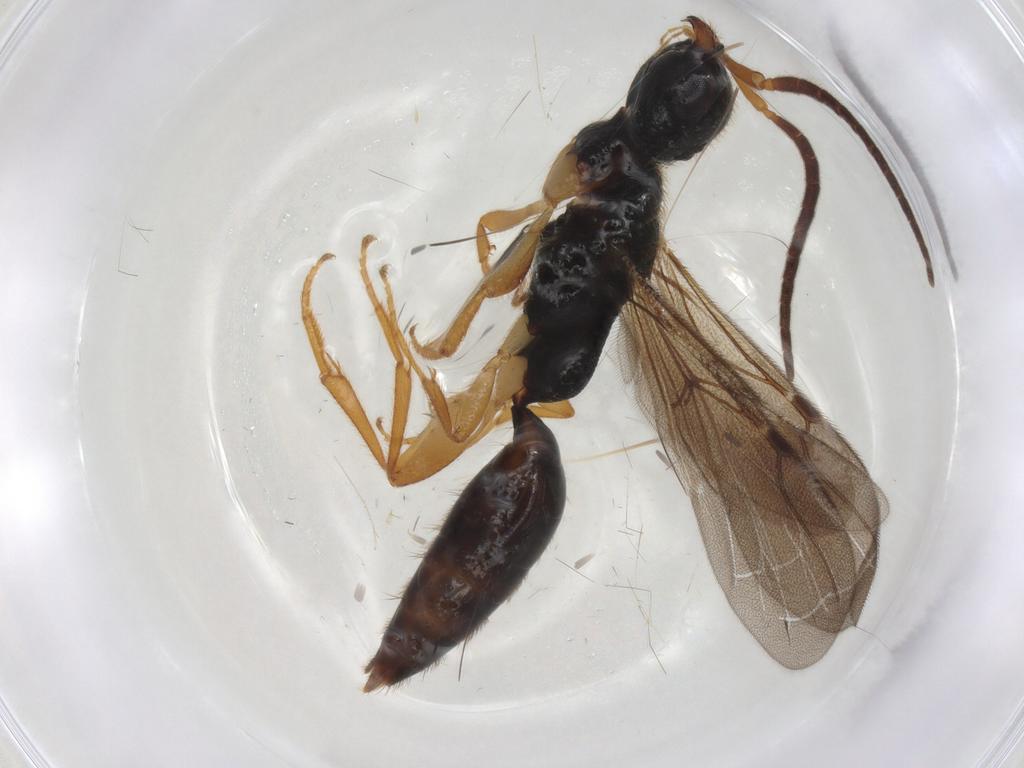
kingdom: Animalia
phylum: Arthropoda
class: Insecta
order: Hymenoptera
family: Bethylidae
